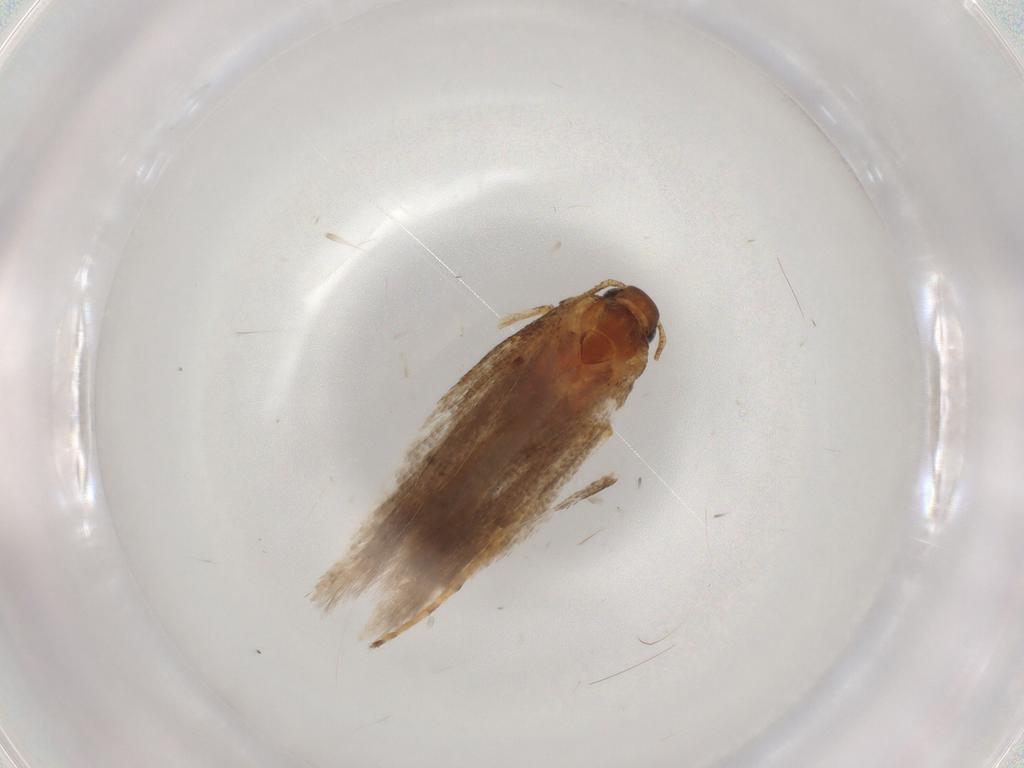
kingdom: Animalia
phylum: Arthropoda
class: Insecta
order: Lepidoptera
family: Gelechiidae
